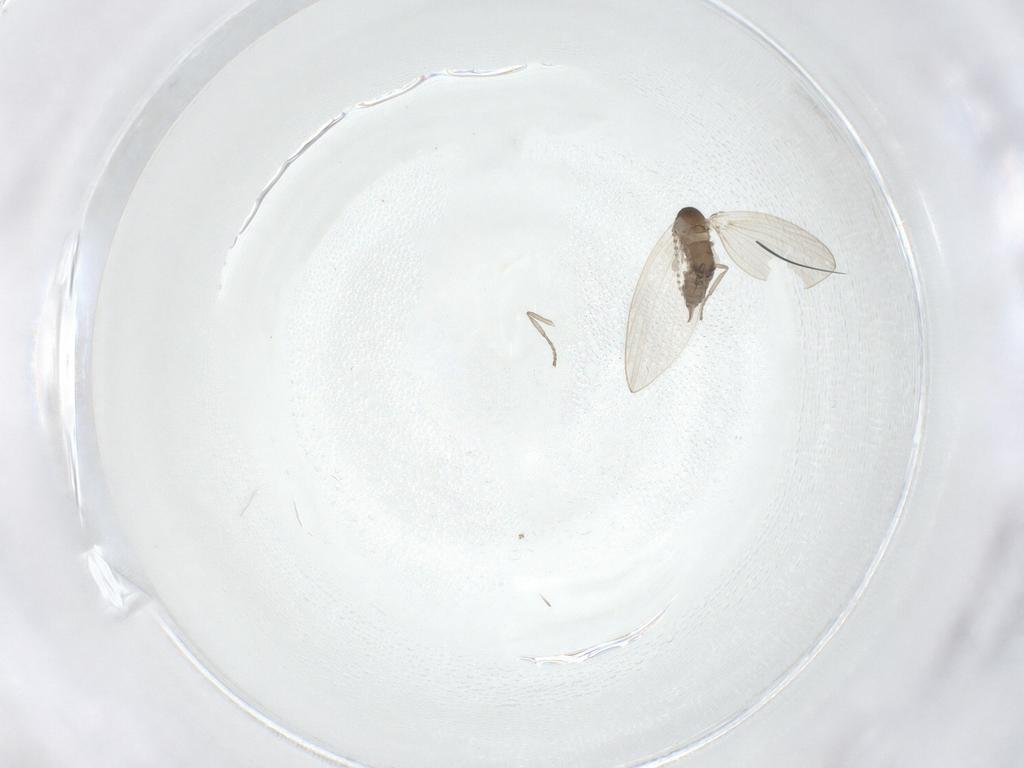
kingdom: Animalia
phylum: Arthropoda
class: Insecta
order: Diptera
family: Psychodidae
